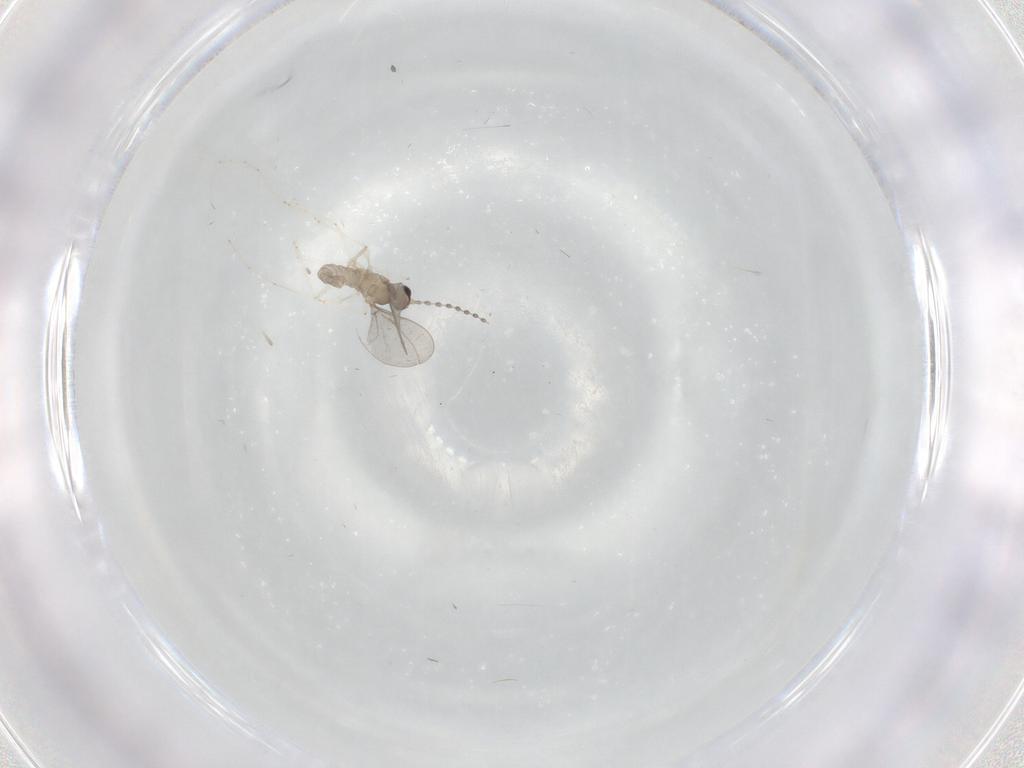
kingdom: Animalia
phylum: Arthropoda
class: Insecta
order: Diptera
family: Cecidomyiidae
